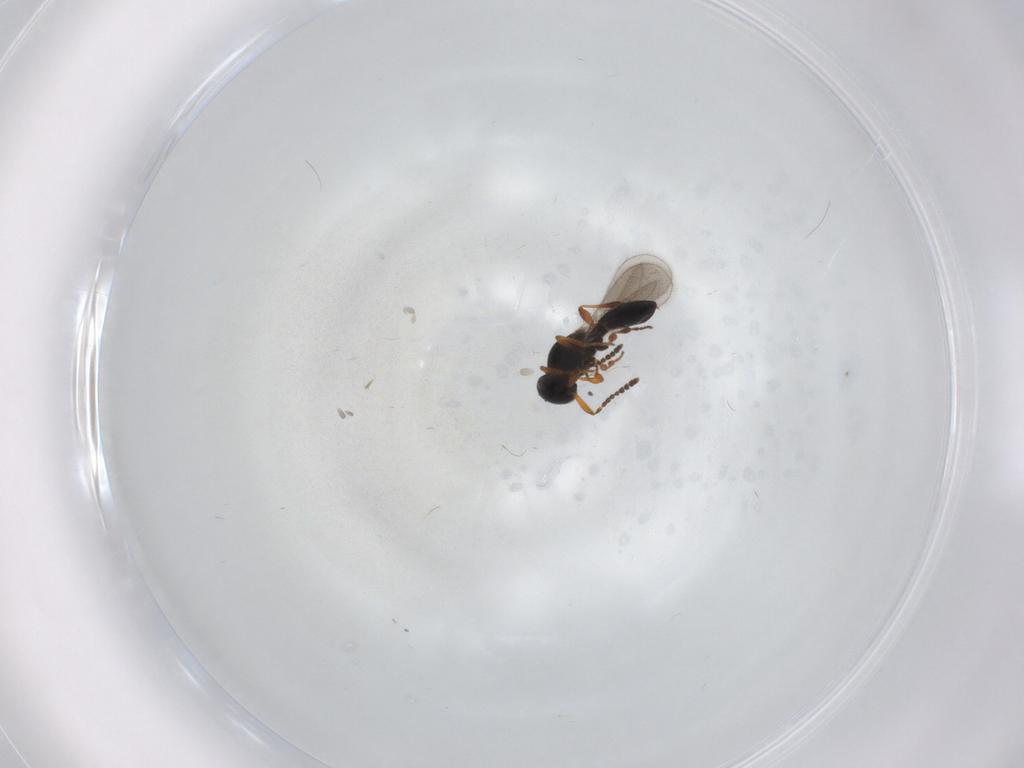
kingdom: Animalia
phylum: Arthropoda
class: Insecta
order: Hymenoptera
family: Platygastridae
